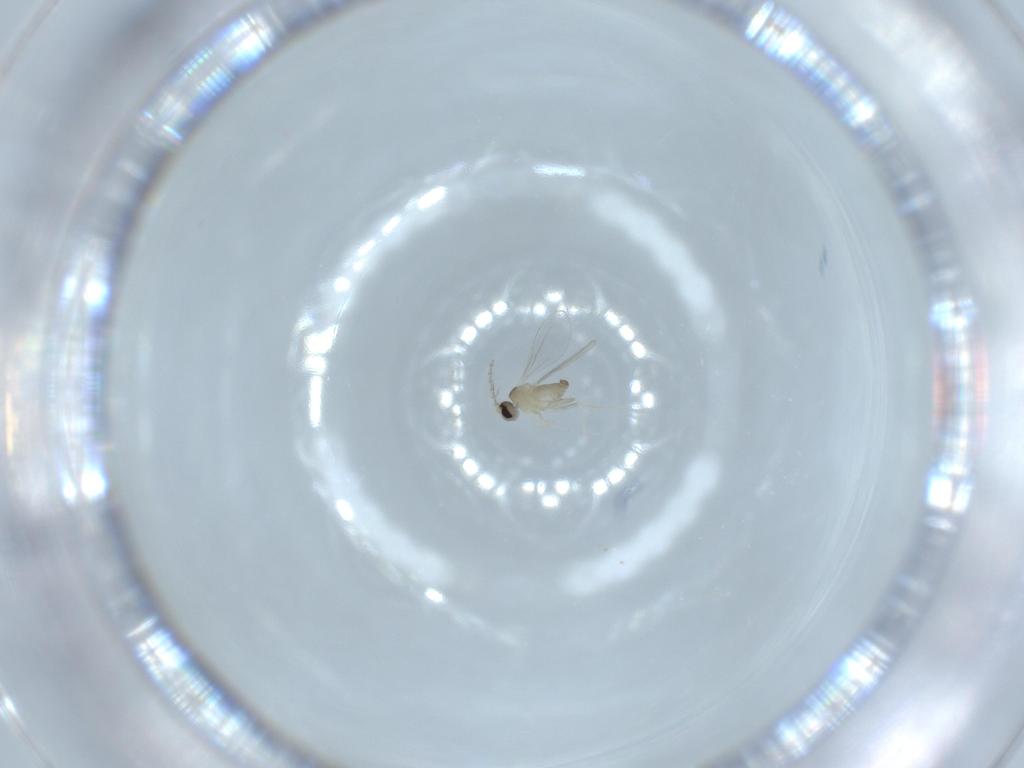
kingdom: Animalia
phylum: Arthropoda
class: Insecta
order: Diptera
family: Cecidomyiidae
